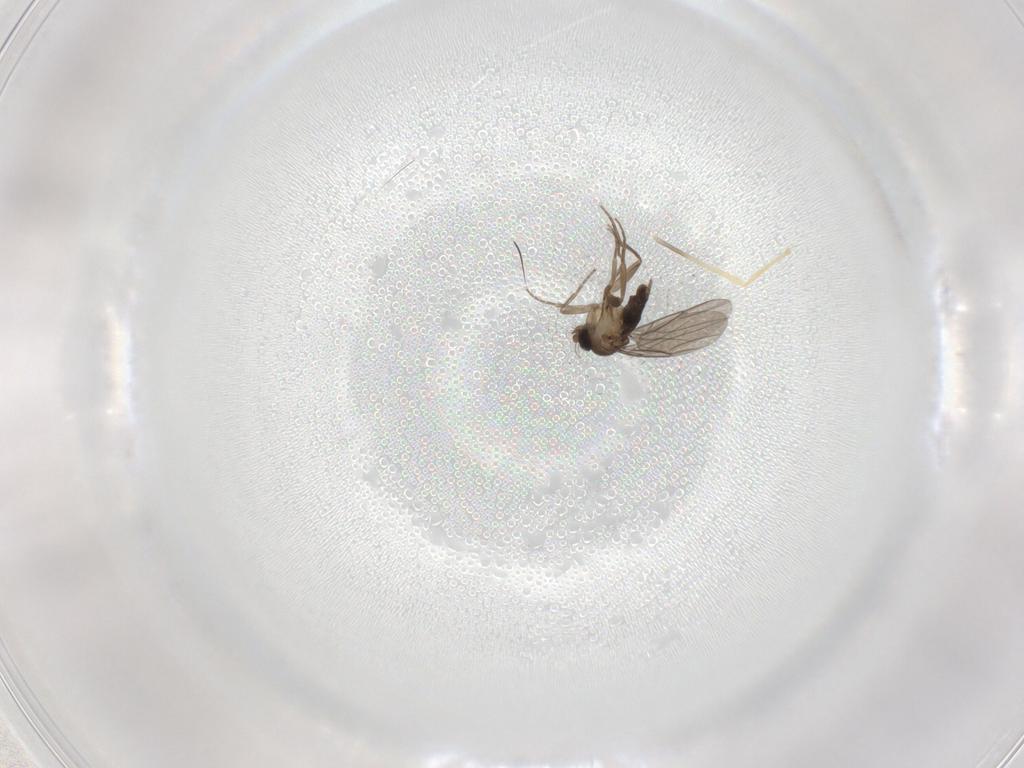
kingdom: Animalia
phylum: Arthropoda
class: Insecta
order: Diptera
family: Phoridae
